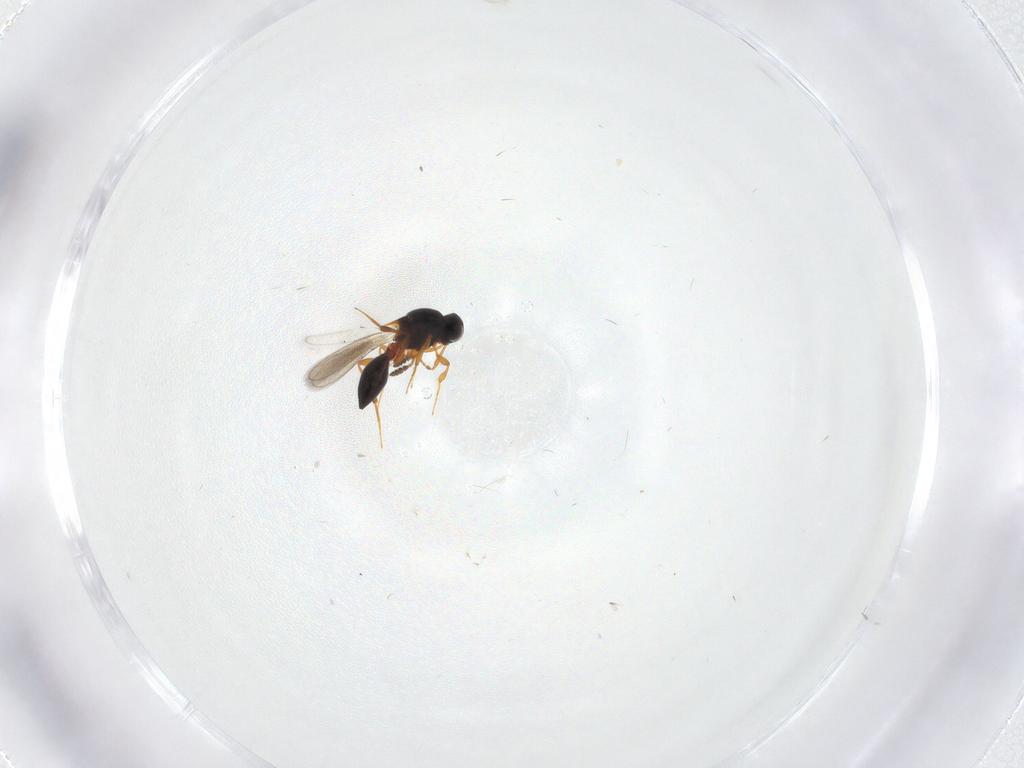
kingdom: Animalia
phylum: Arthropoda
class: Insecta
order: Hymenoptera
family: Platygastridae
